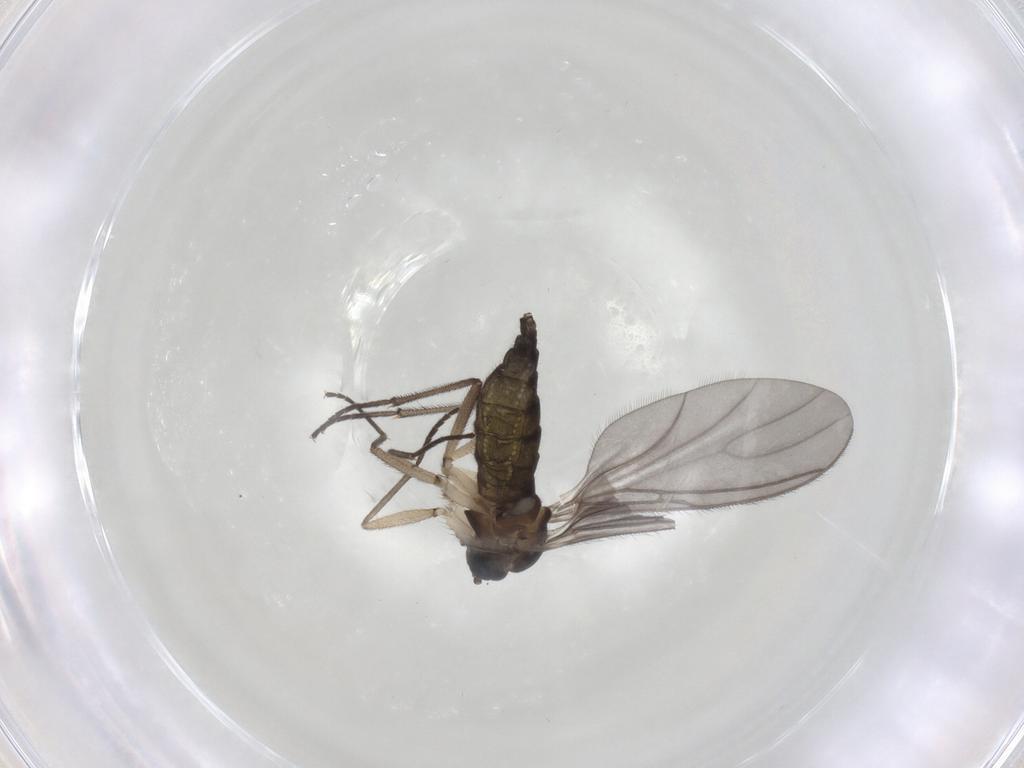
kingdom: Animalia
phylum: Arthropoda
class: Insecta
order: Diptera
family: Sciaridae
